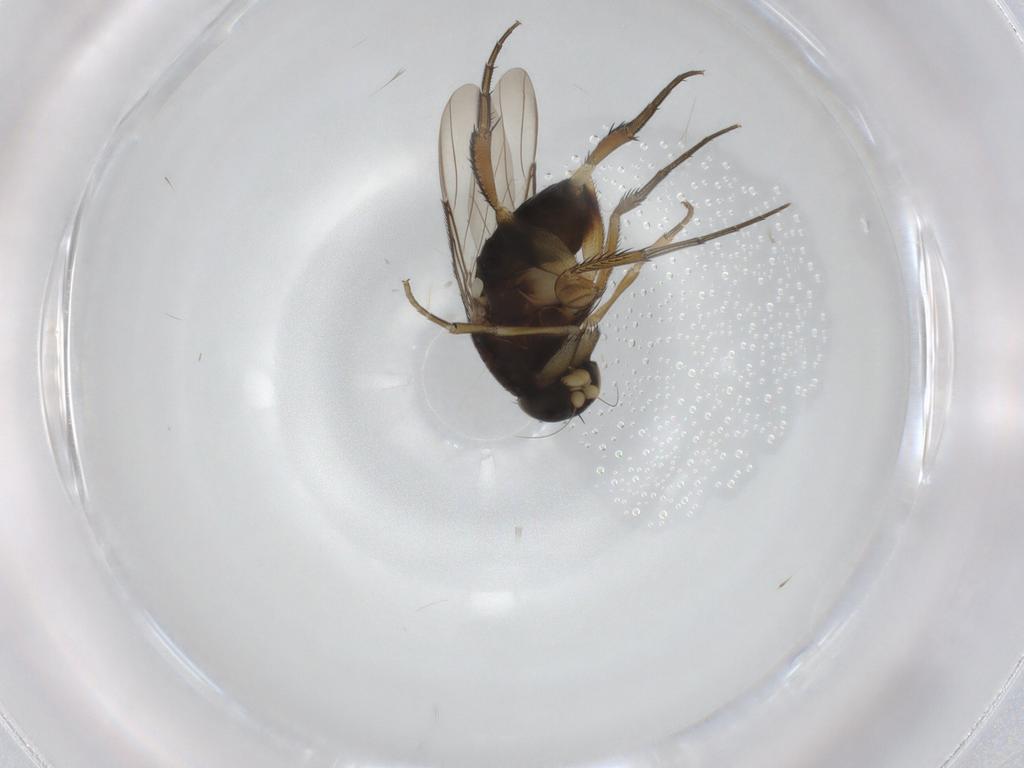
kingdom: Animalia
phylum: Arthropoda
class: Insecta
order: Diptera
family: Phoridae
